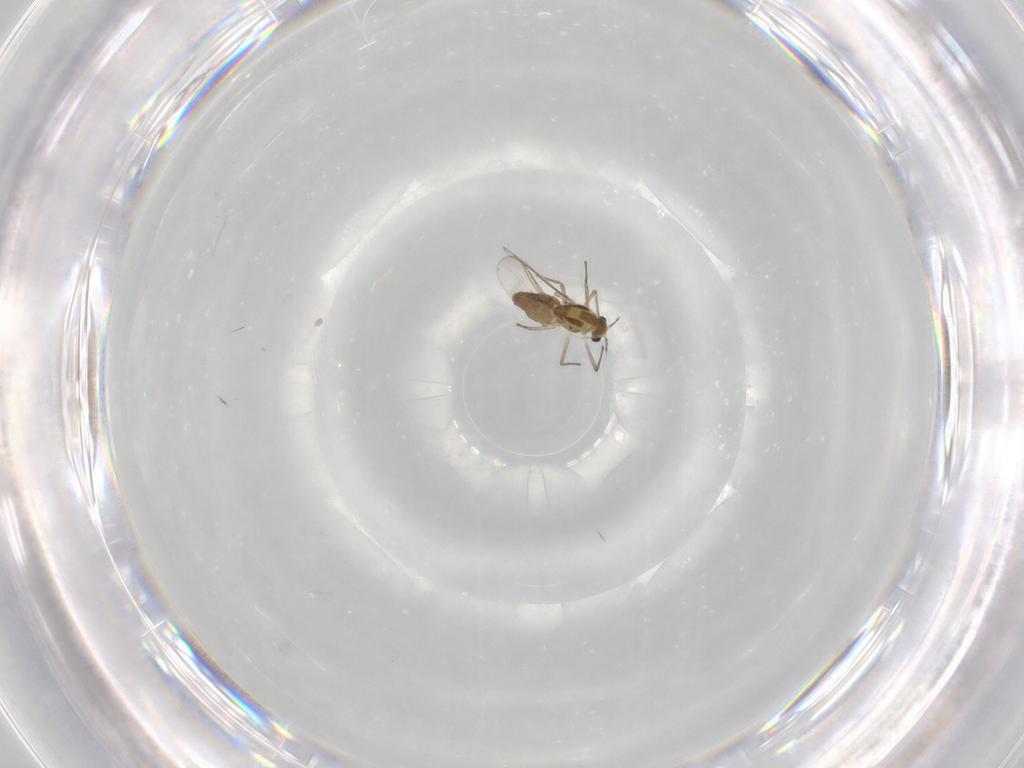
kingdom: Animalia
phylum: Arthropoda
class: Insecta
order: Diptera
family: Chironomidae
